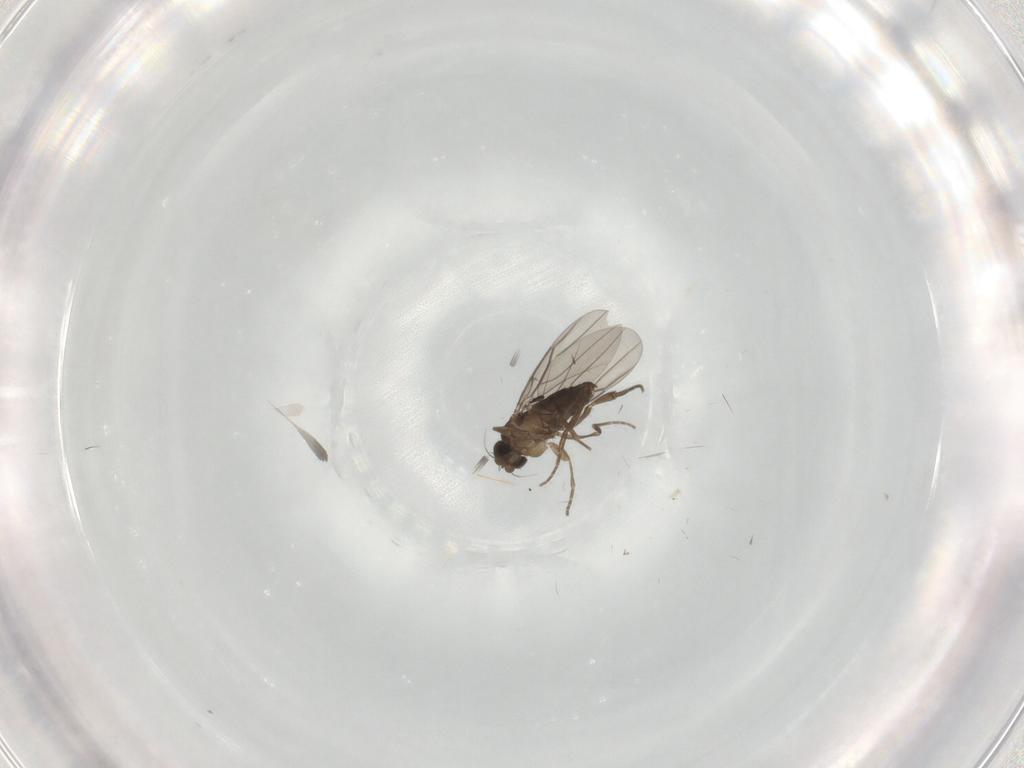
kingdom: Animalia
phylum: Arthropoda
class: Insecta
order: Diptera
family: Phoridae
